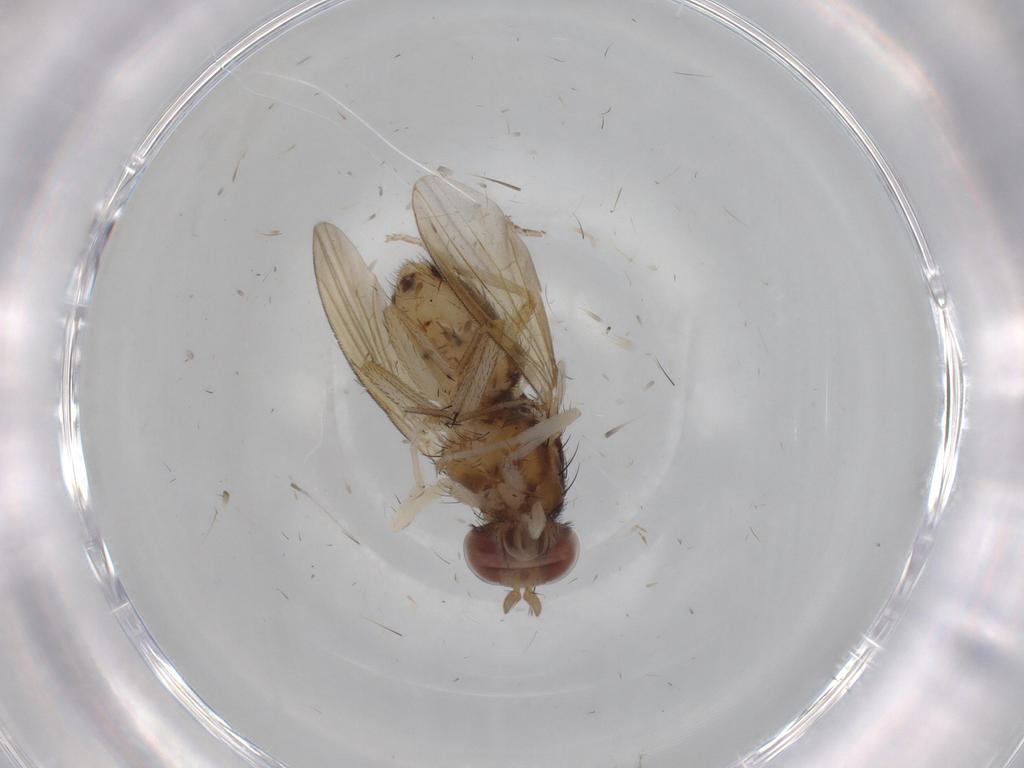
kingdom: Animalia
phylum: Arthropoda
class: Insecta
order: Diptera
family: Cecidomyiidae
